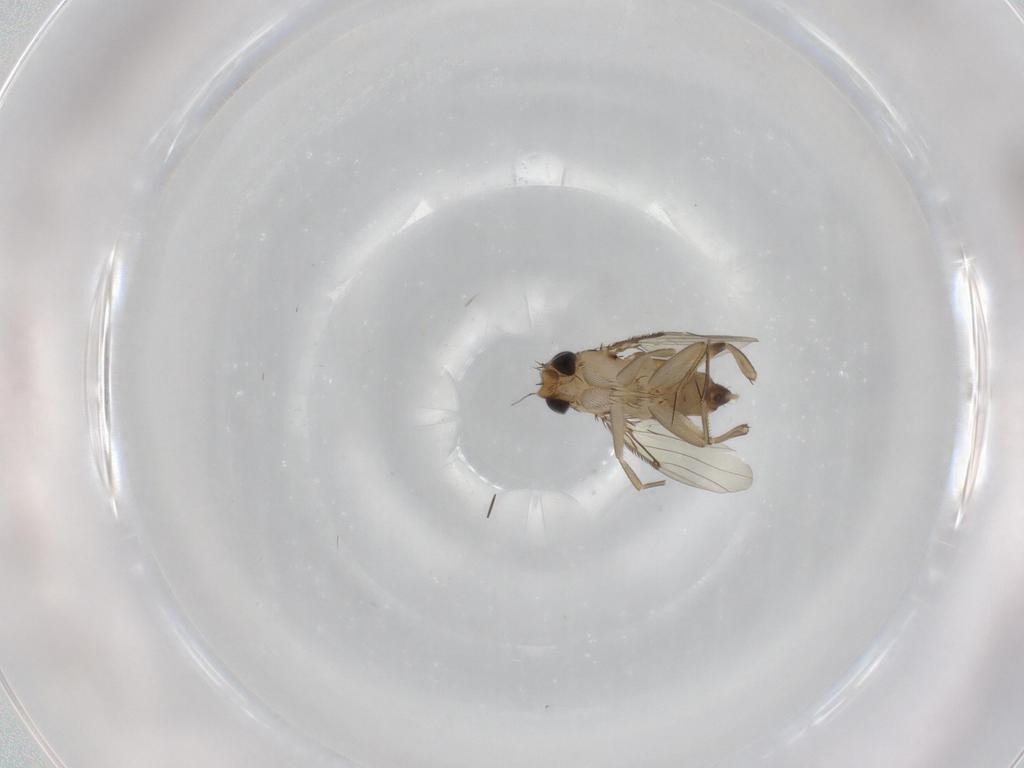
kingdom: Animalia
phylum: Arthropoda
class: Insecta
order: Diptera
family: Phoridae
